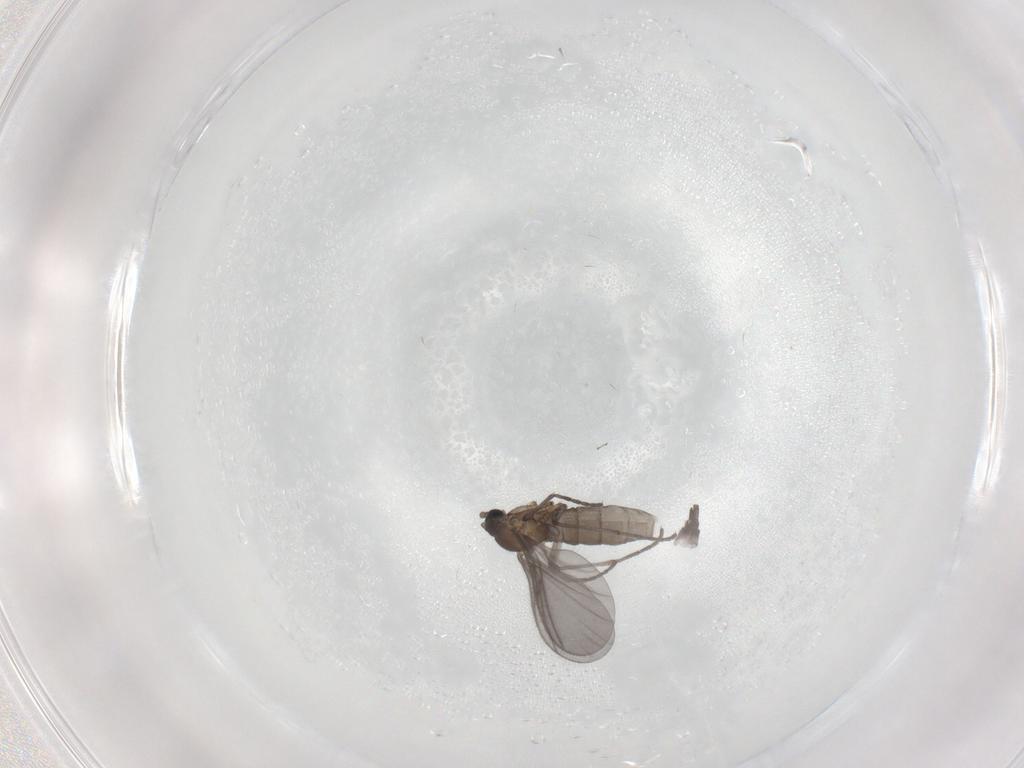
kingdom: Animalia
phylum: Arthropoda
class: Insecta
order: Diptera
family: Sciaridae
